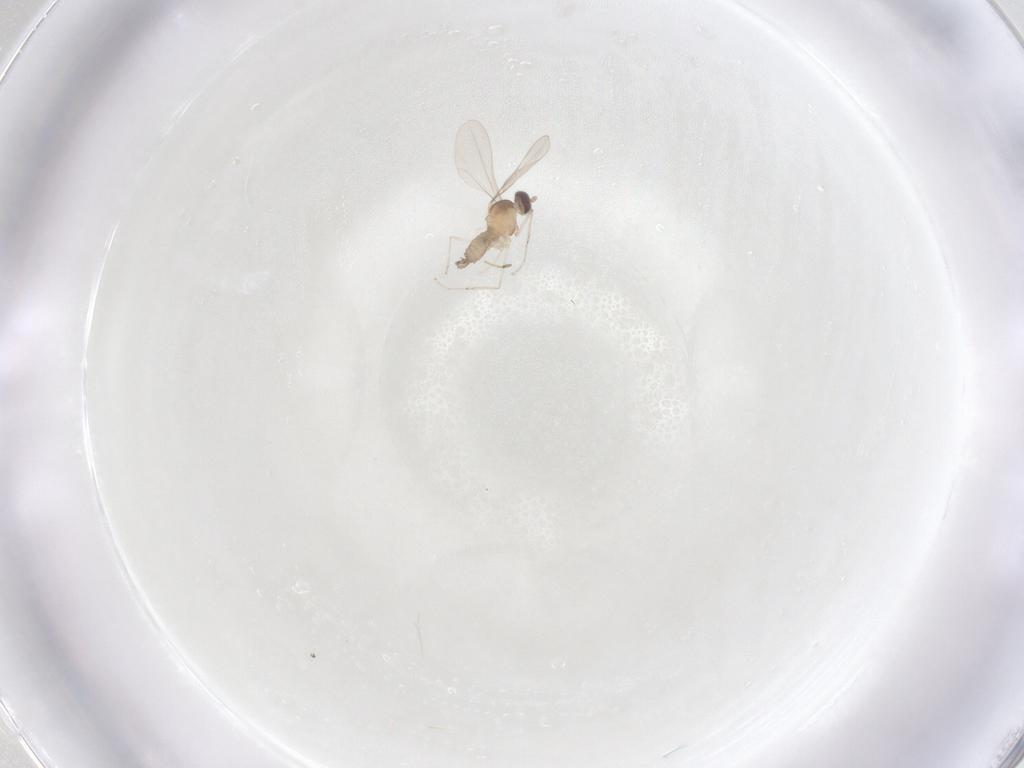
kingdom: Animalia
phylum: Arthropoda
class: Insecta
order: Diptera
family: Cecidomyiidae
